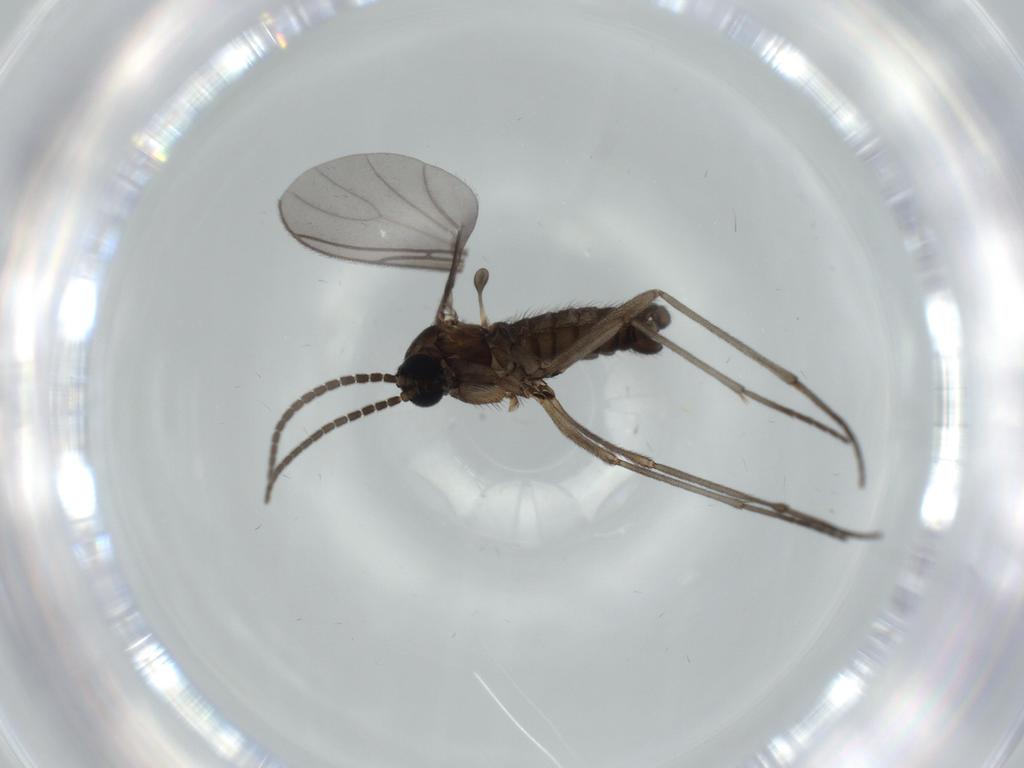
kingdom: Animalia
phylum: Arthropoda
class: Insecta
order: Diptera
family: Sciaridae
